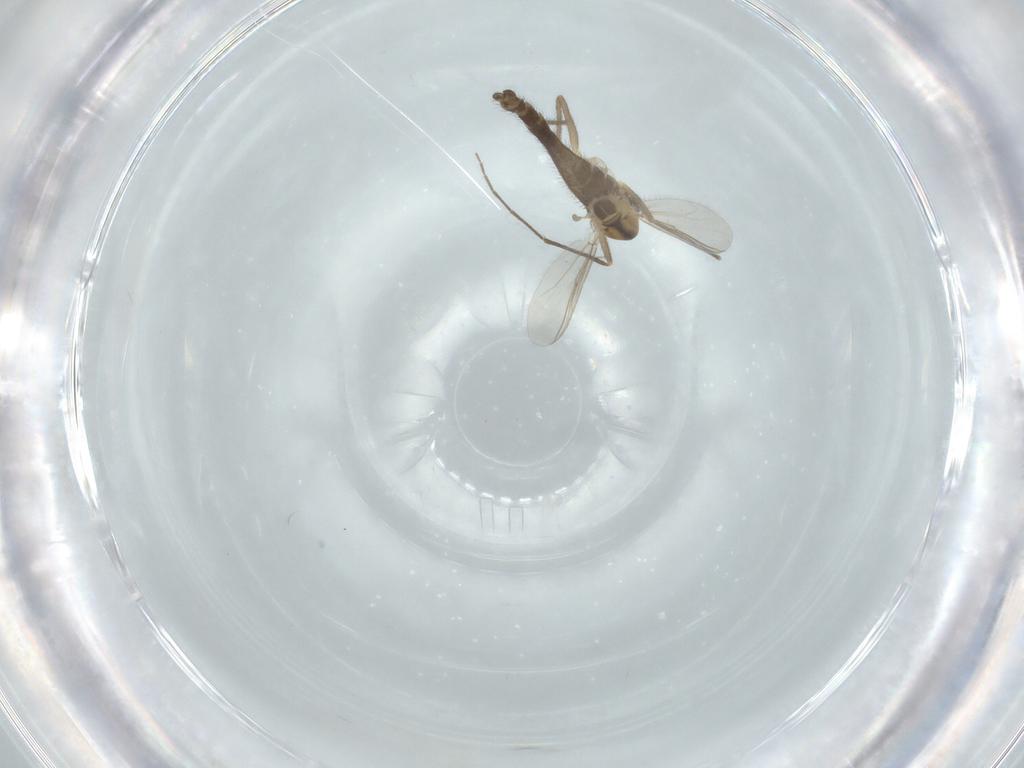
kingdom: Animalia
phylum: Arthropoda
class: Insecta
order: Diptera
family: Chironomidae
